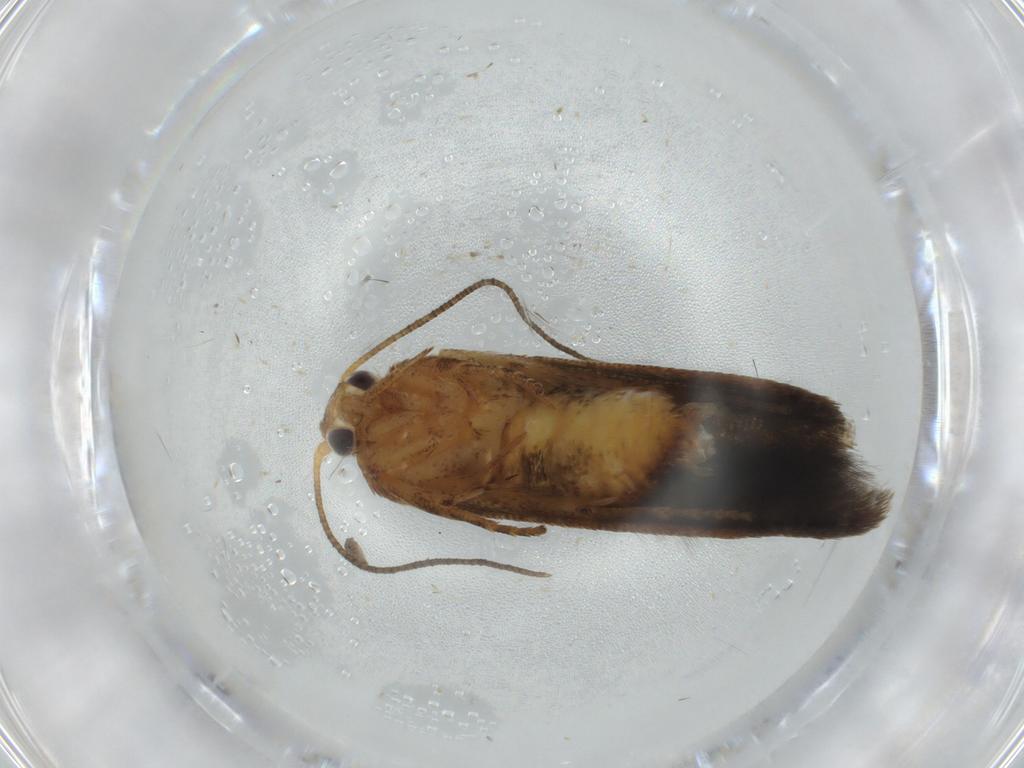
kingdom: Animalia
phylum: Arthropoda
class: Insecta
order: Lepidoptera
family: Blastobasidae
